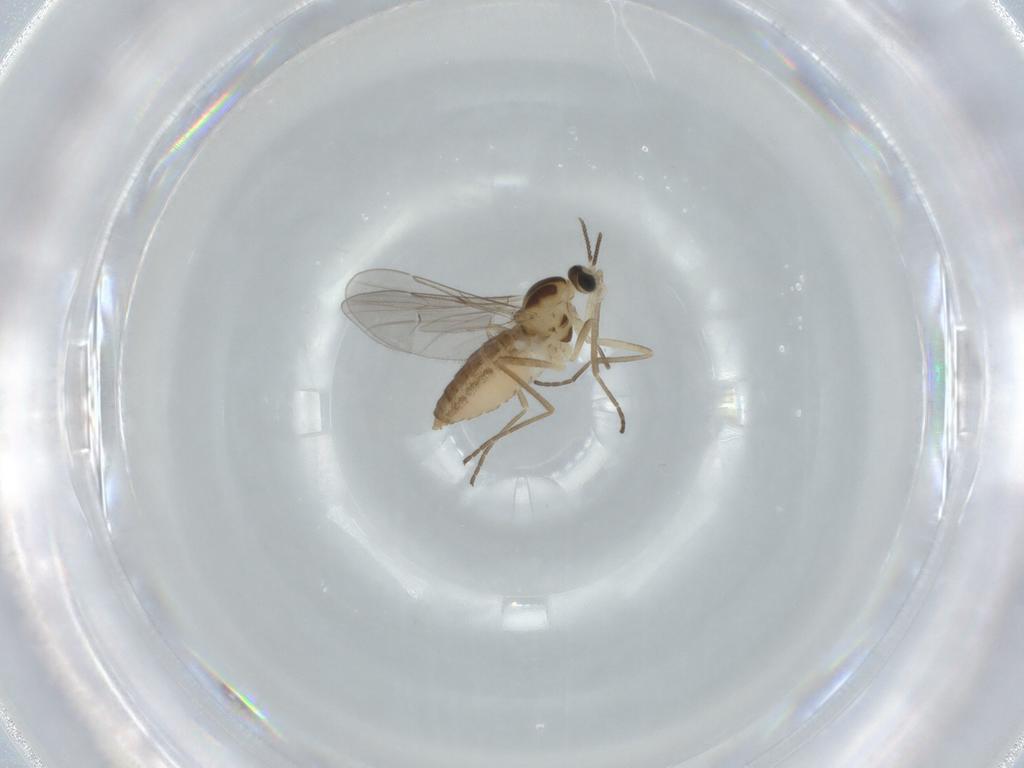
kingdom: Animalia
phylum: Arthropoda
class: Insecta
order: Diptera
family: Cecidomyiidae
